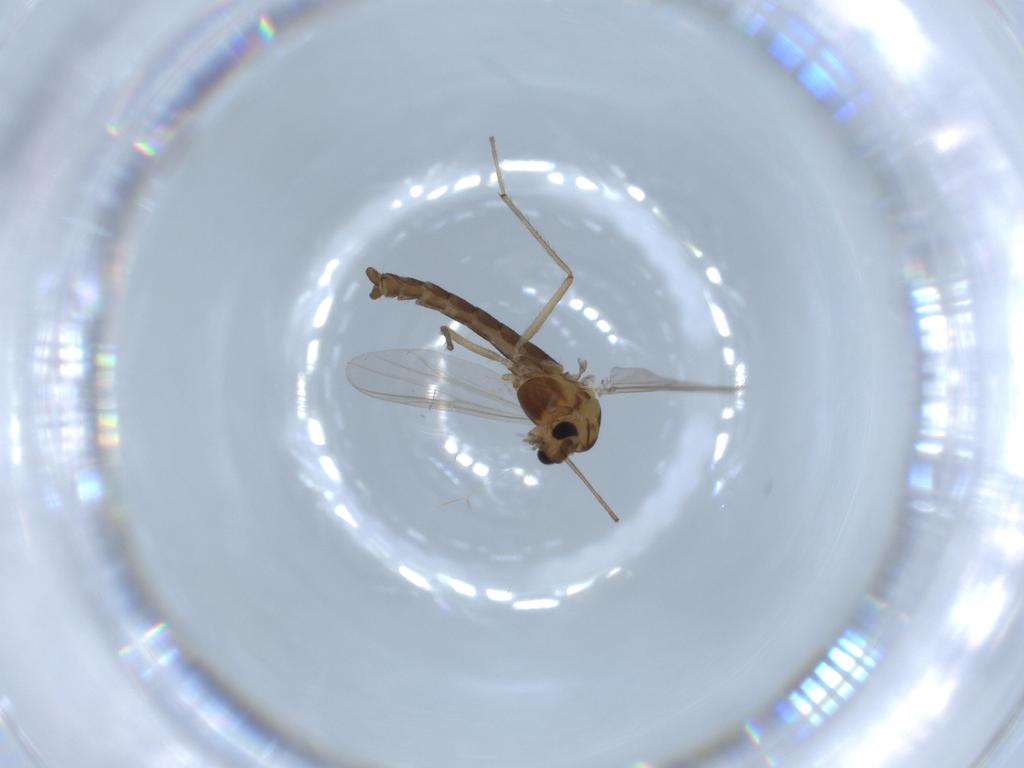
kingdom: Animalia
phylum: Arthropoda
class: Insecta
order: Diptera
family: Chironomidae
